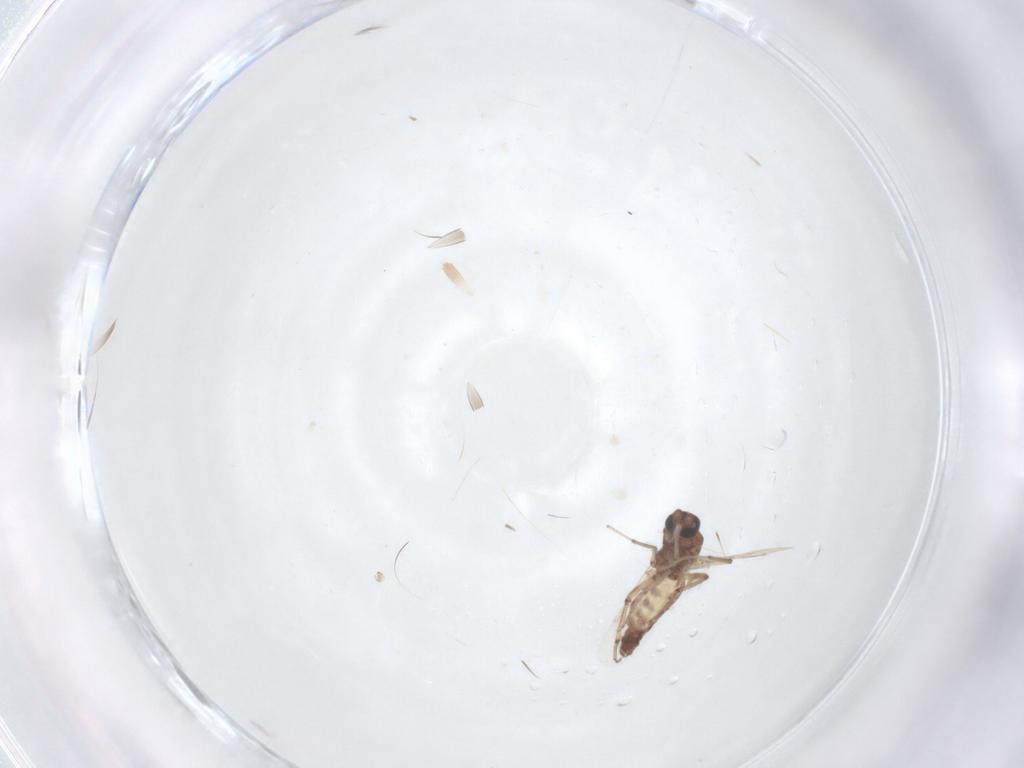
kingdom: Animalia
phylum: Arthropoda
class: Insecta
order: Diptera
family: Ceratopogonidae
